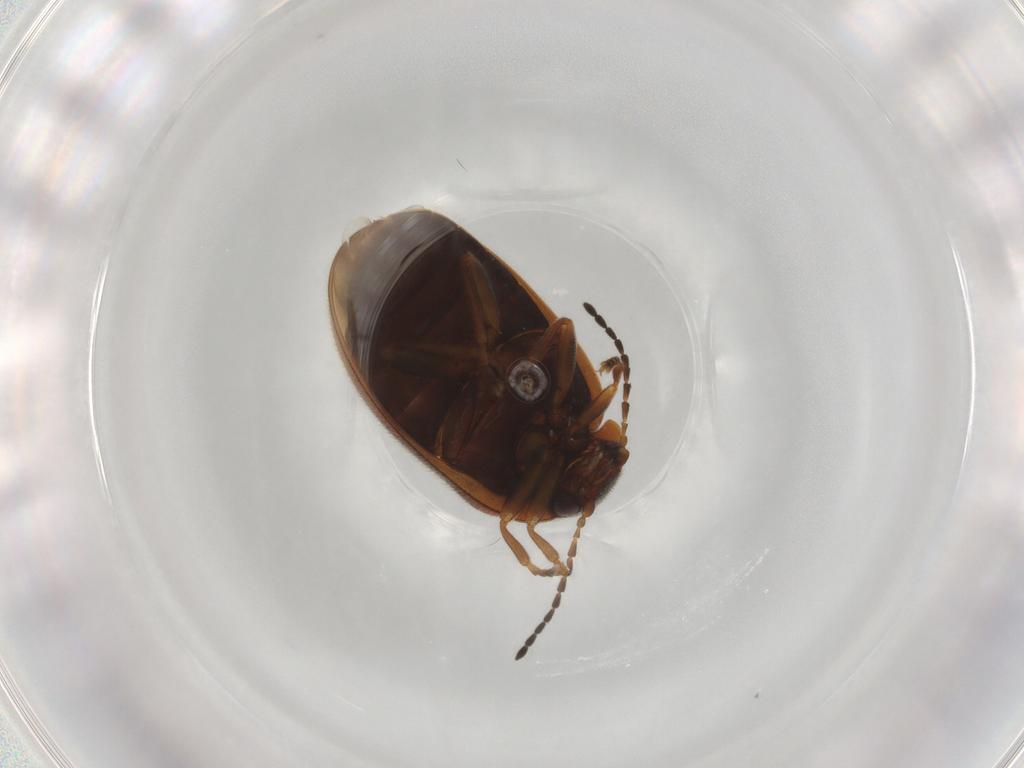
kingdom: Animalia
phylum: Arthropoda
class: Insecta
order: Coleoptera
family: Scirtidae
